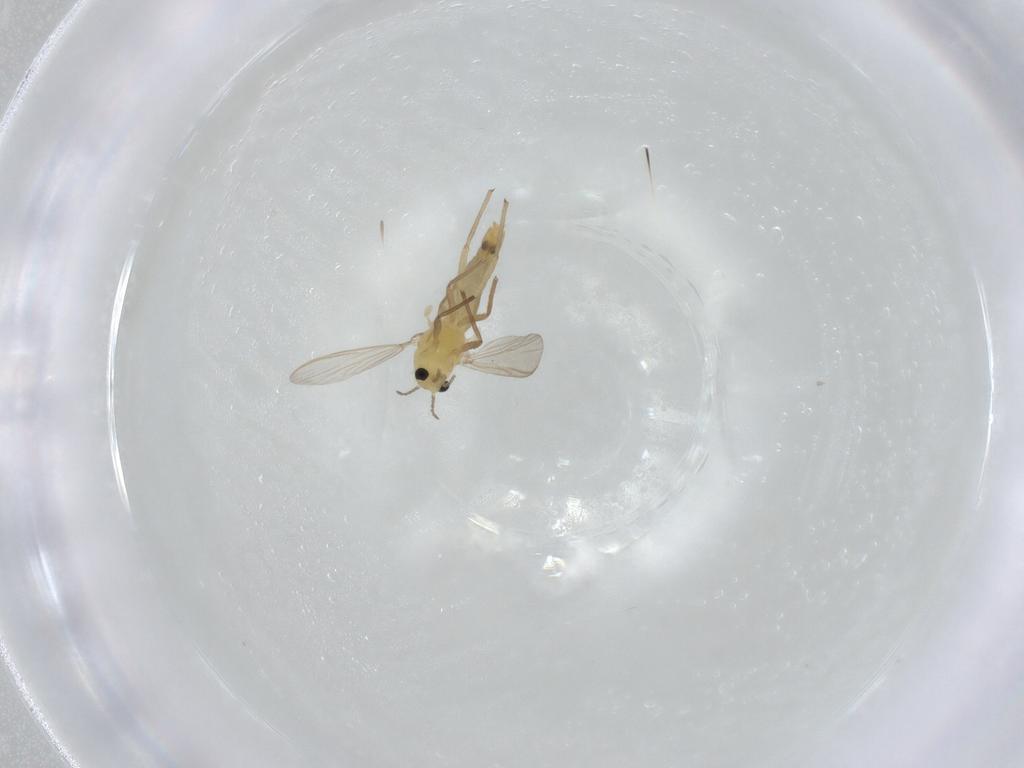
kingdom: Animalia
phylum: Arthropoda
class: Insecta
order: Diptera
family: Chironomidae
